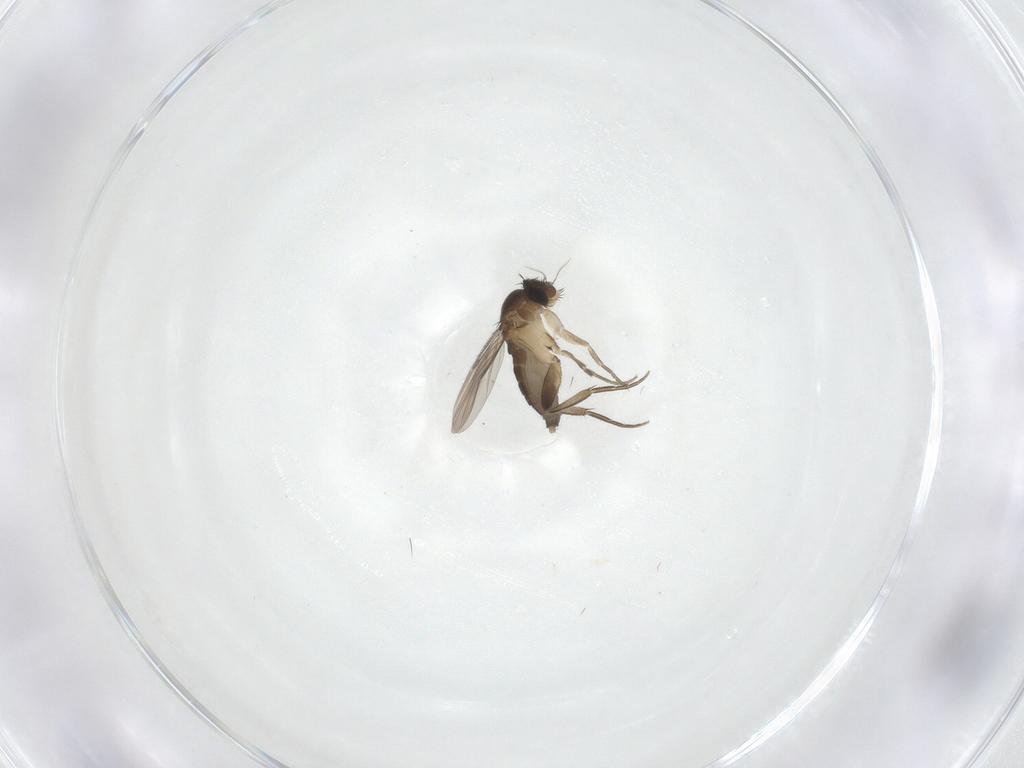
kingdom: Animalia
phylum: Arthropoda
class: Insecta
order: Diptera
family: Phoridae
